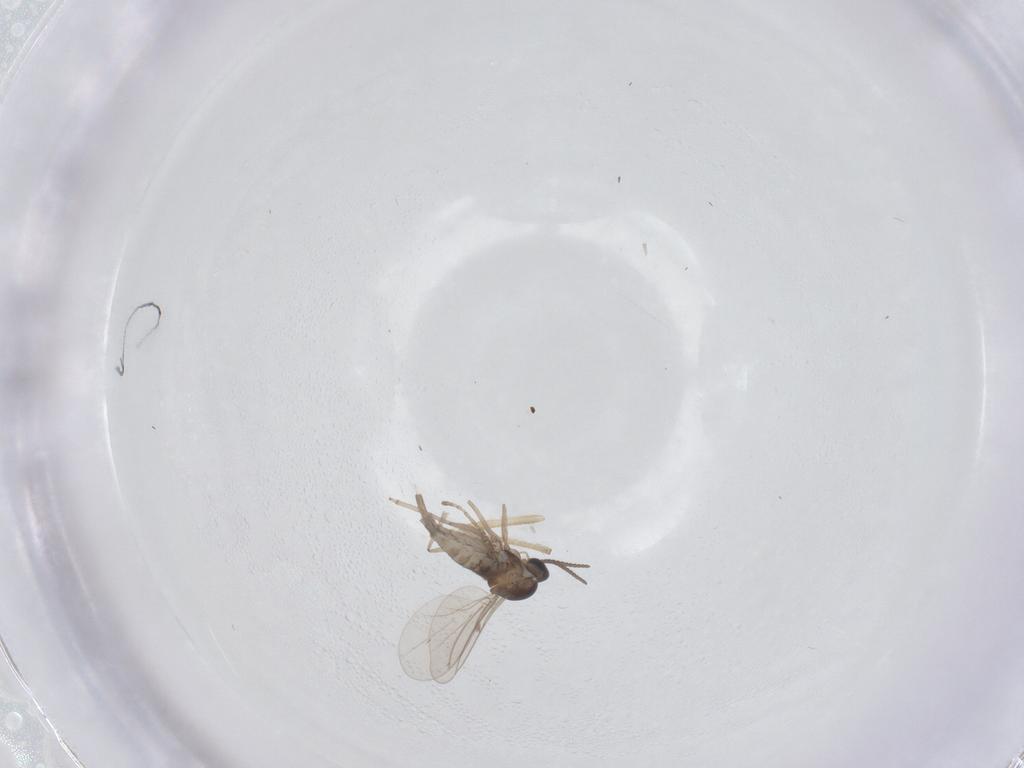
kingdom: Animalia
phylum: Arthropoda
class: Insecta
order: Diptera
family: Cecidomyiidae
